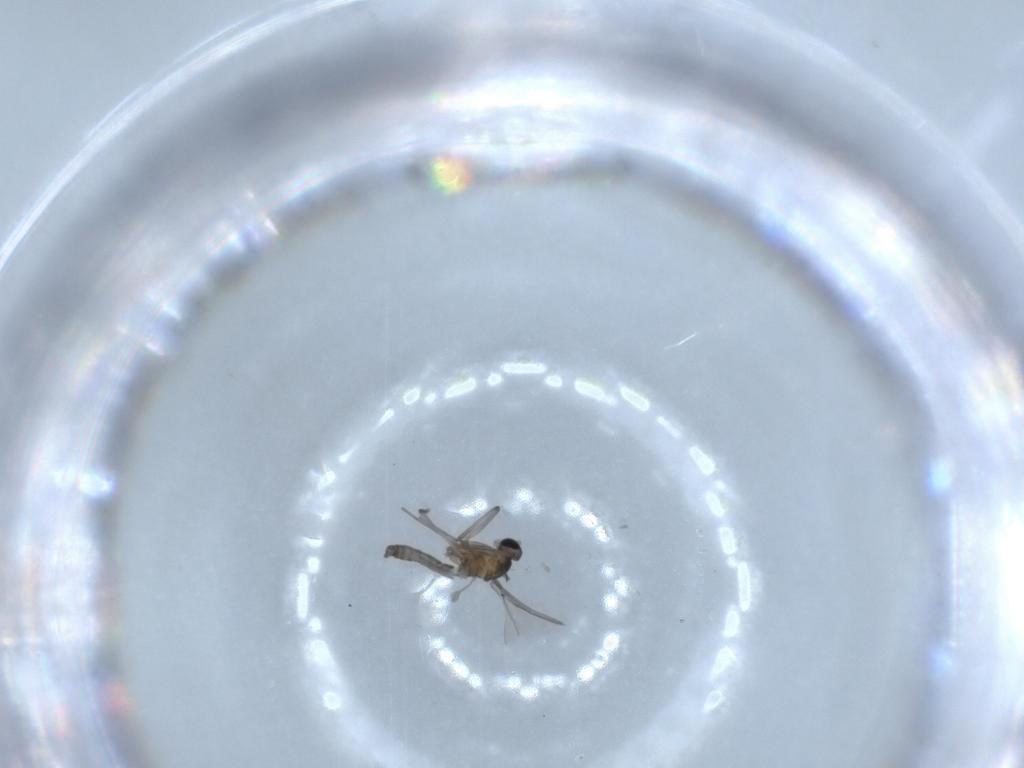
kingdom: Animalia
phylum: Arthropoda
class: Insecta
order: Diptera
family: Cecidomyiidae
